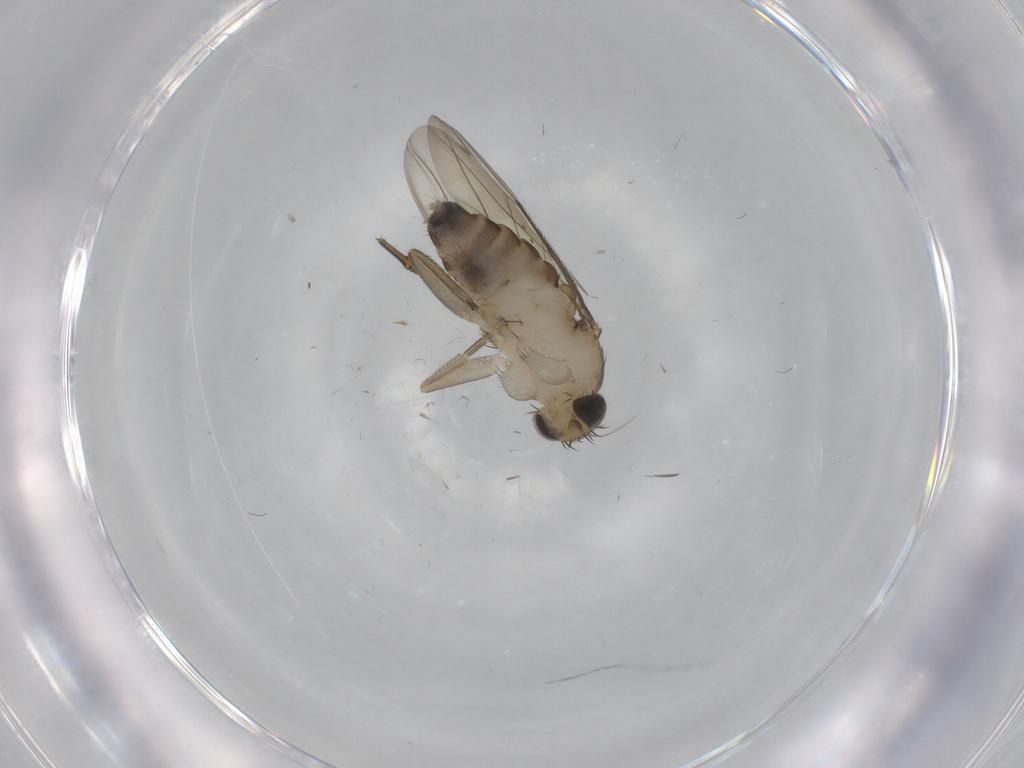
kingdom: Animalia
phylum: Arthropoda
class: Insecta
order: Diptera
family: Phoridae
